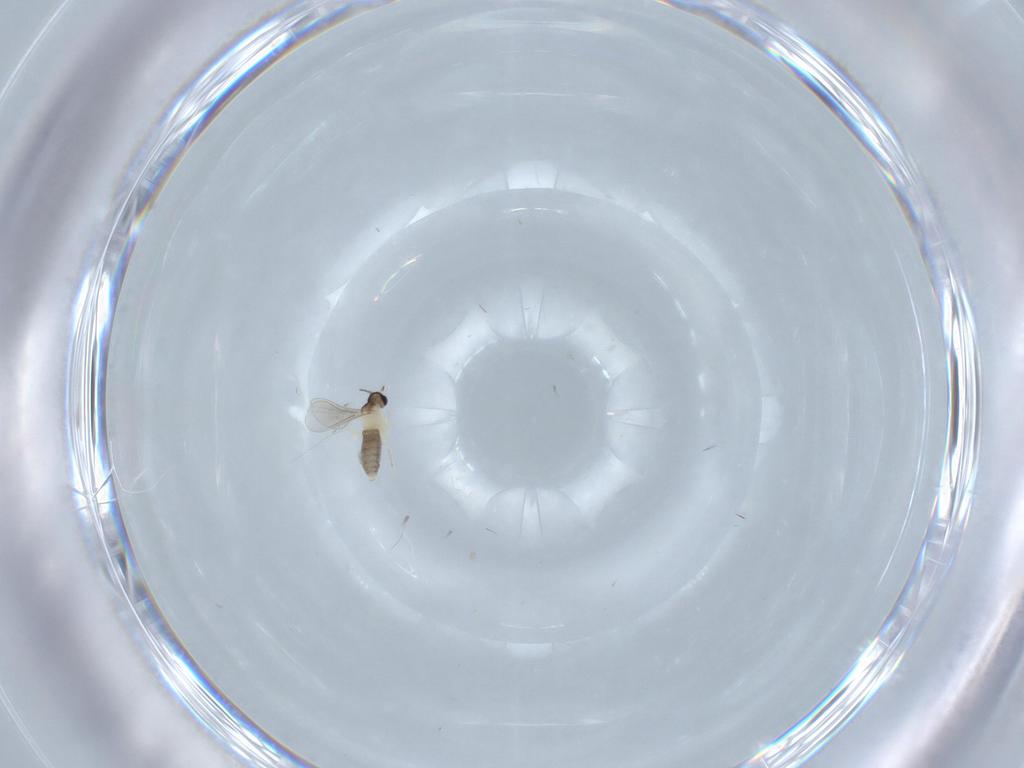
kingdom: Animalia
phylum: Arthropoda
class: Insecta
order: Diptera
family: Cecidomyiidae
